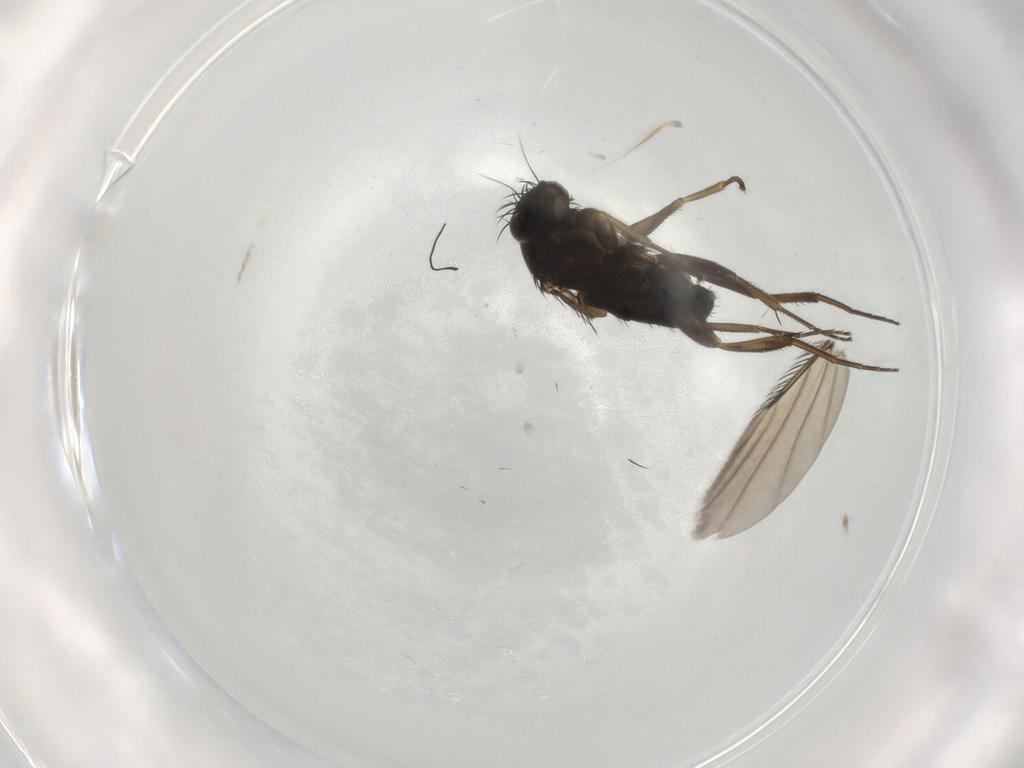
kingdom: Animalia
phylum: Arthropoda
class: Insecta
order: Diptera
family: Phoridae
